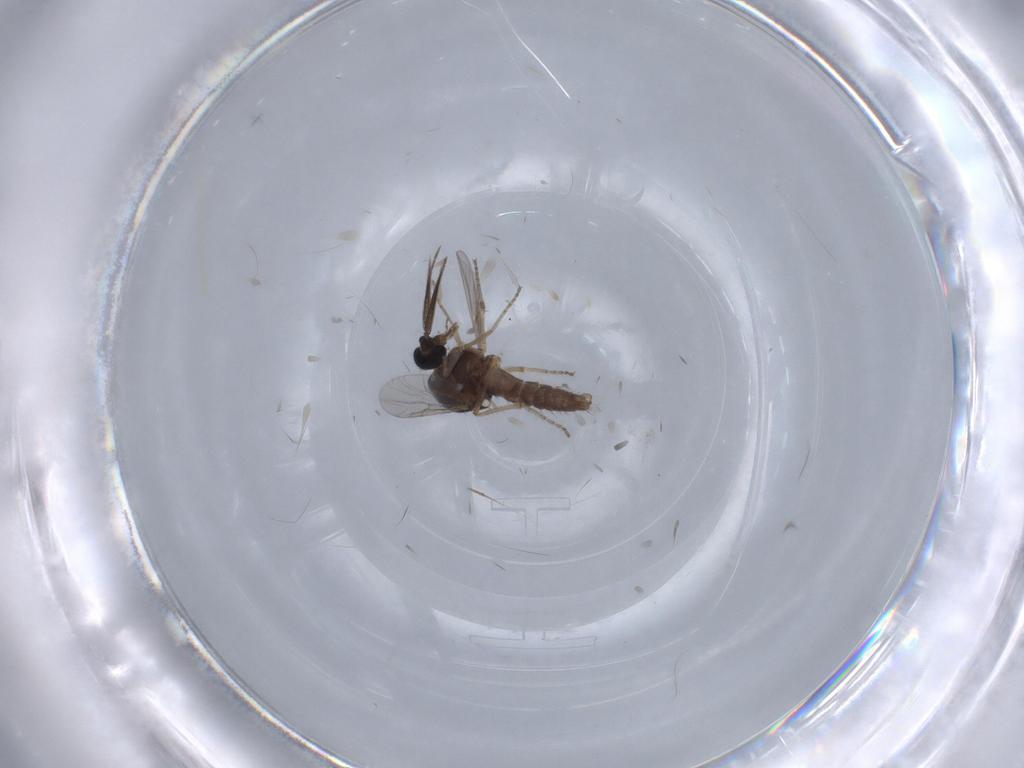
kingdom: Animalia
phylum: Arthropoda
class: Insecta
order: Diptera
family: Ceratopogonidae
